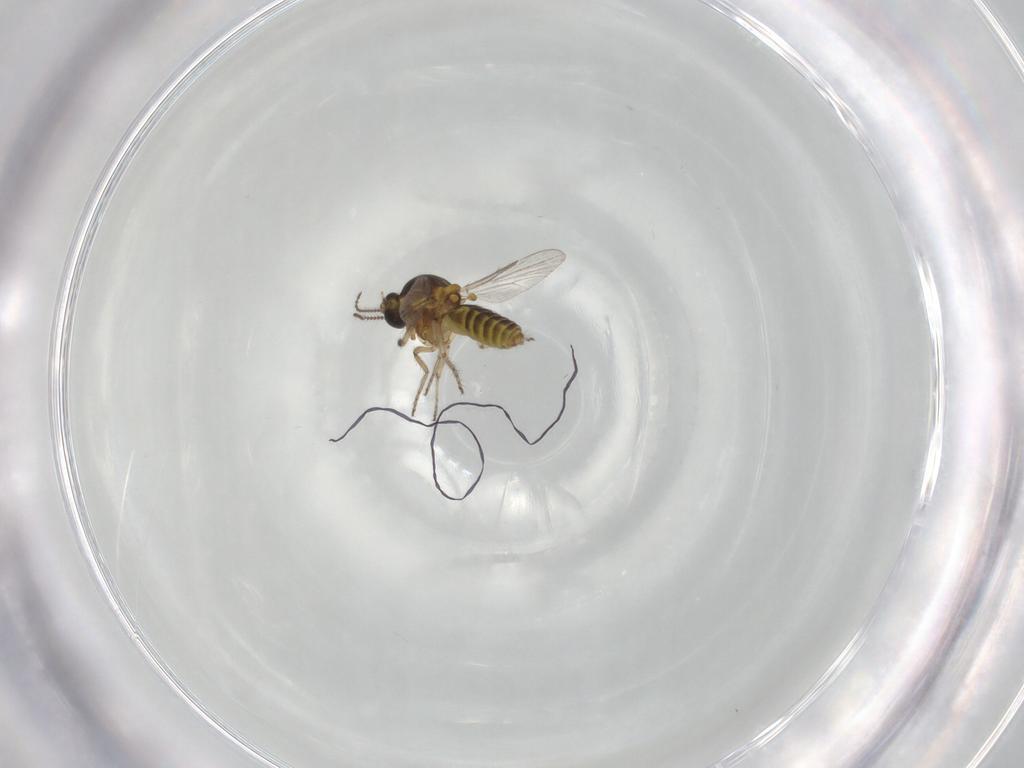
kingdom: Animalia
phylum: Arthropoda
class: Insecta
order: Diptera
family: Ceratopogonidae
